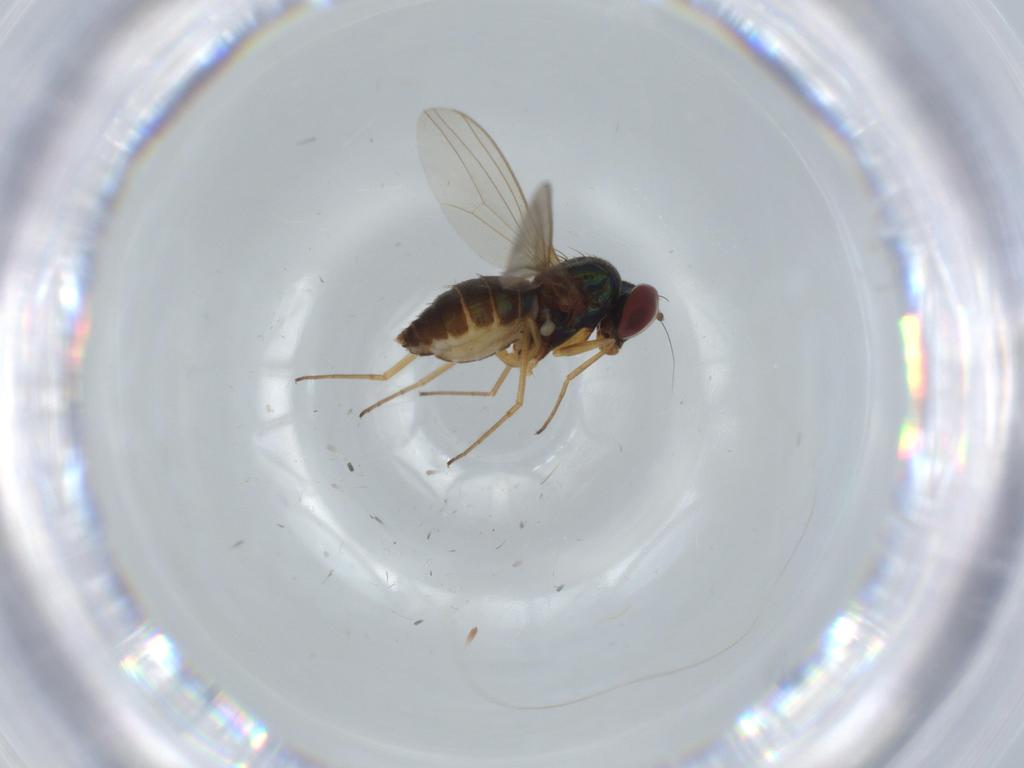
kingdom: Animalia
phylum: Arthropoda
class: Insecta
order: Diptera
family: Dolichopodidae
